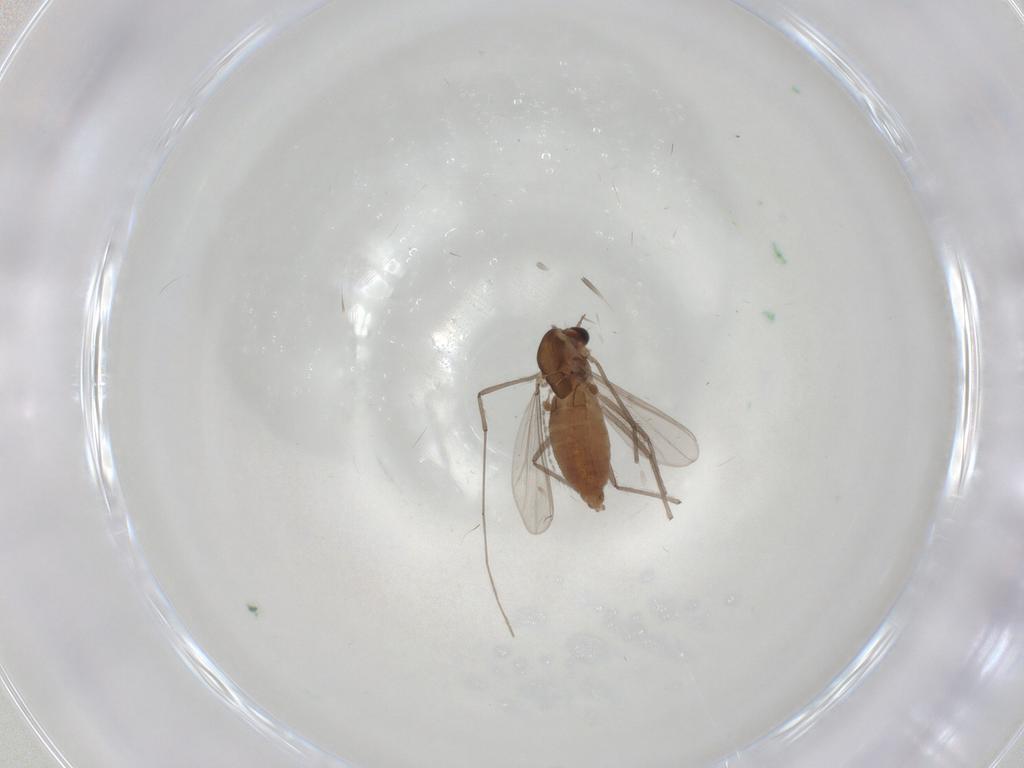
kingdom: Animalia
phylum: Arthropoda
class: Insecta
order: Diptera
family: Chironomidae
